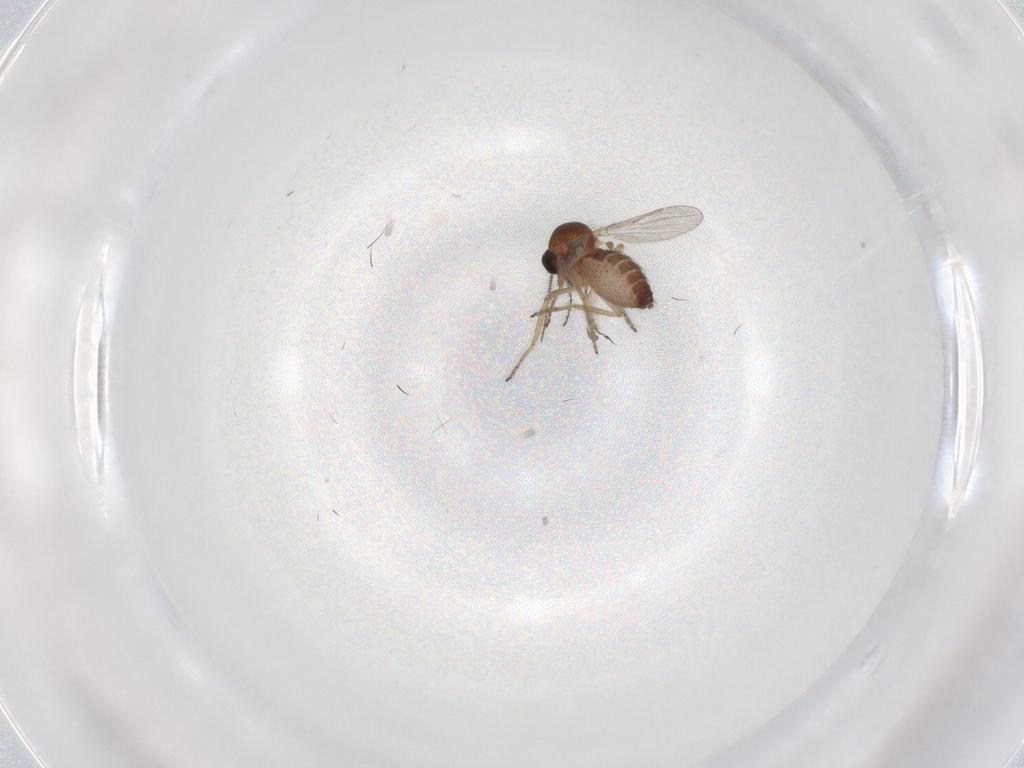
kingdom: Animalia
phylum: Arthropoda
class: Insecta
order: Diptera
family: Ceratopogonidae
